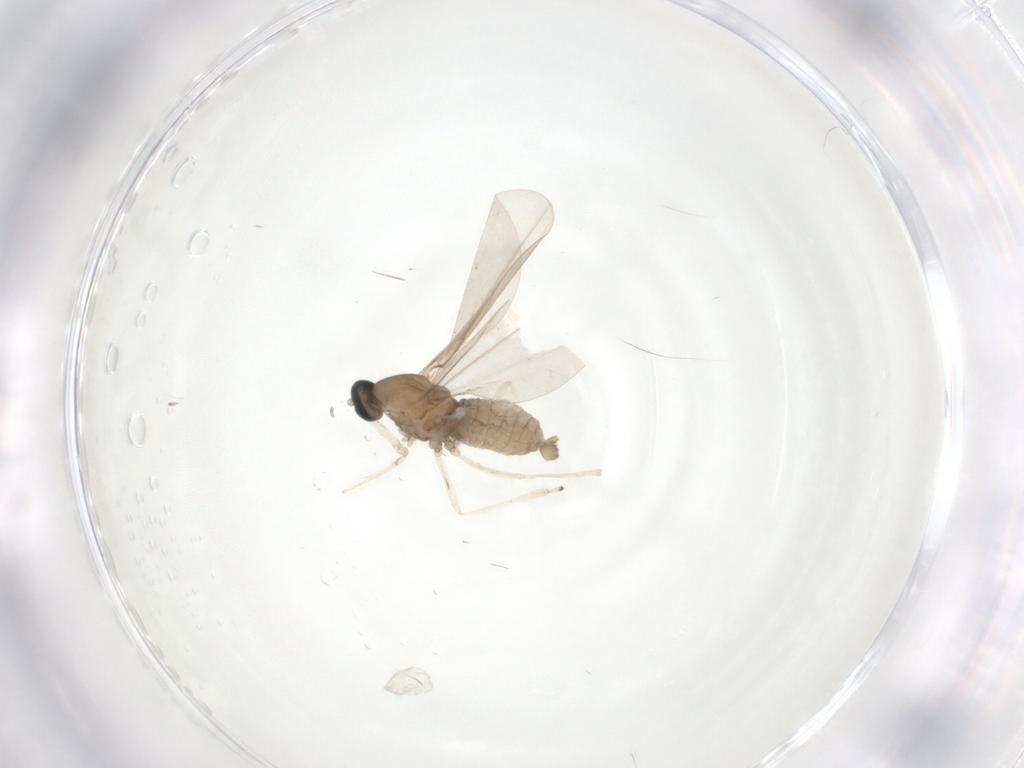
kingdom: Animalia
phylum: Arthropoda
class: Insecta
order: Diptera
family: Cecidomyiidae
